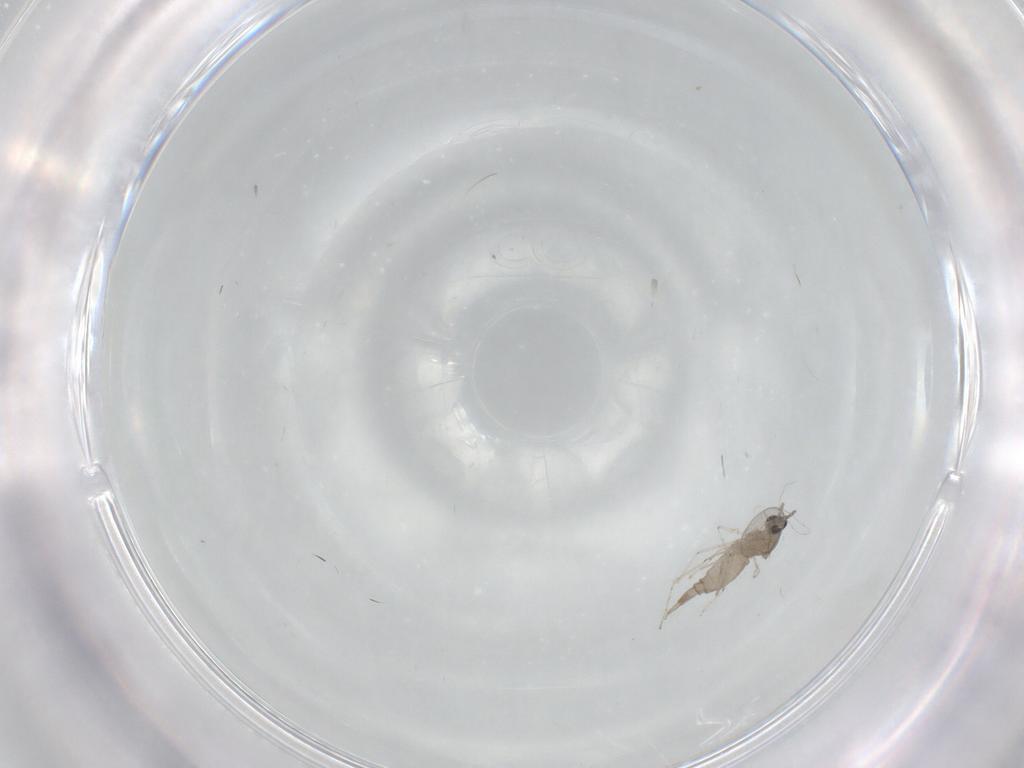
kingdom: Animalia
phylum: Arthropoda
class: Insecta
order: Diptera
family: Cecidomyiidae
